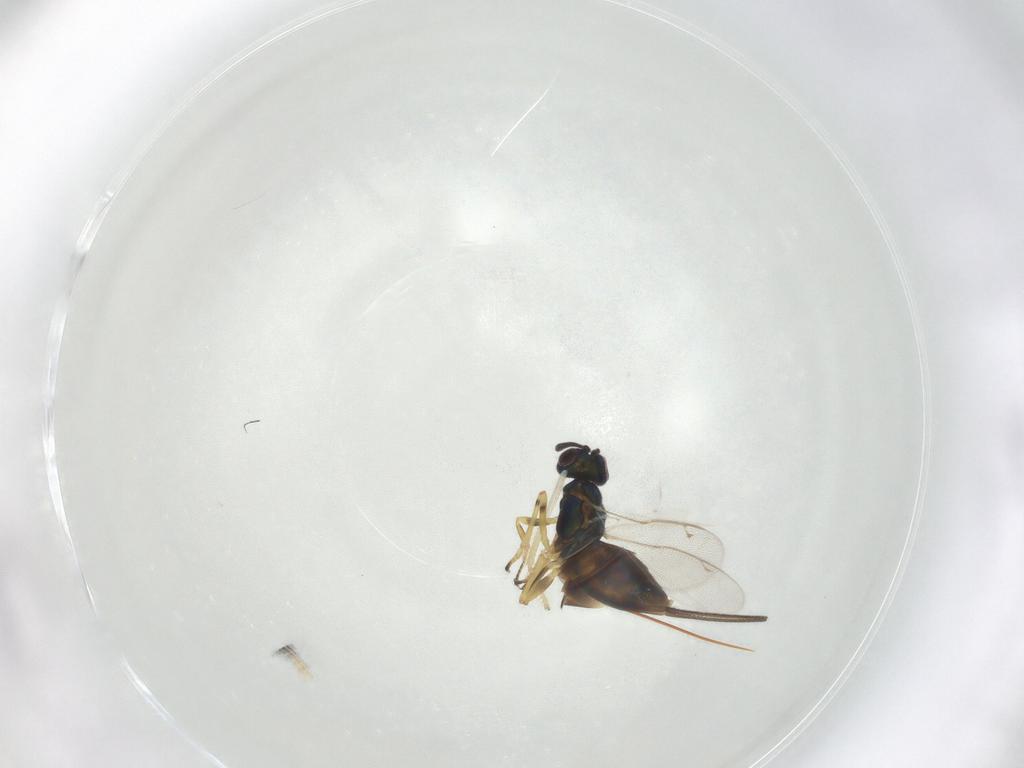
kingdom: Animalia
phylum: Arthropoda
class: Insecta
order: Hymenoptera
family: Eupelmidae
